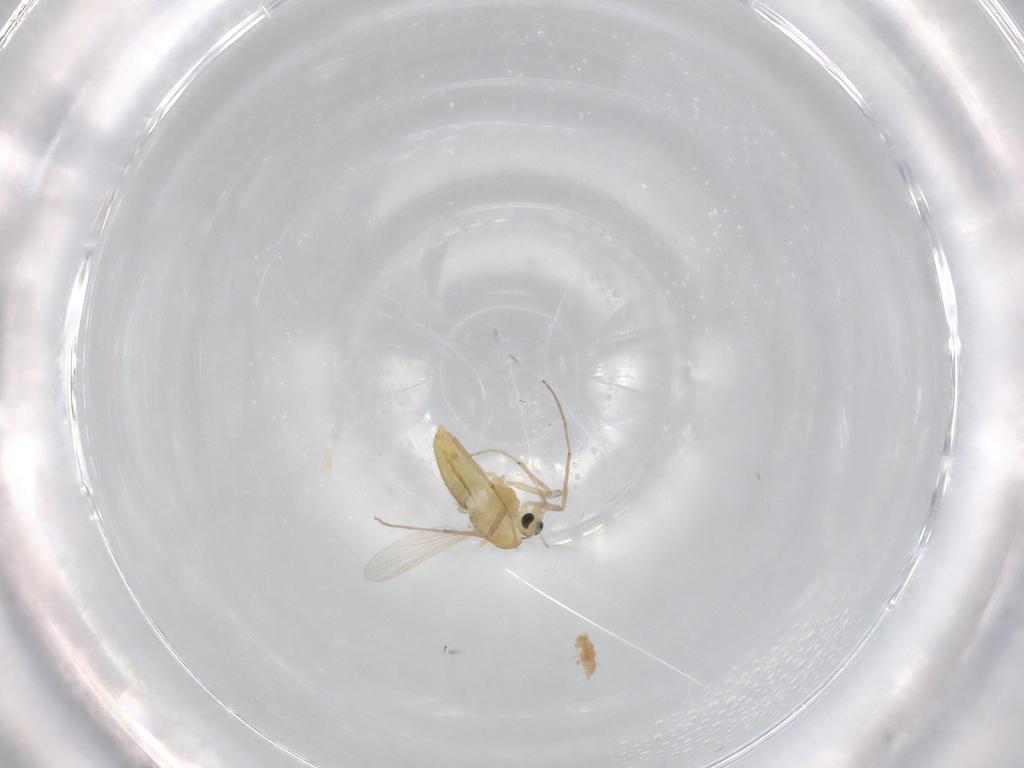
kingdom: Animalia
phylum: Arthropoda
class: Insecta
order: Diptera
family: Chironomidae
